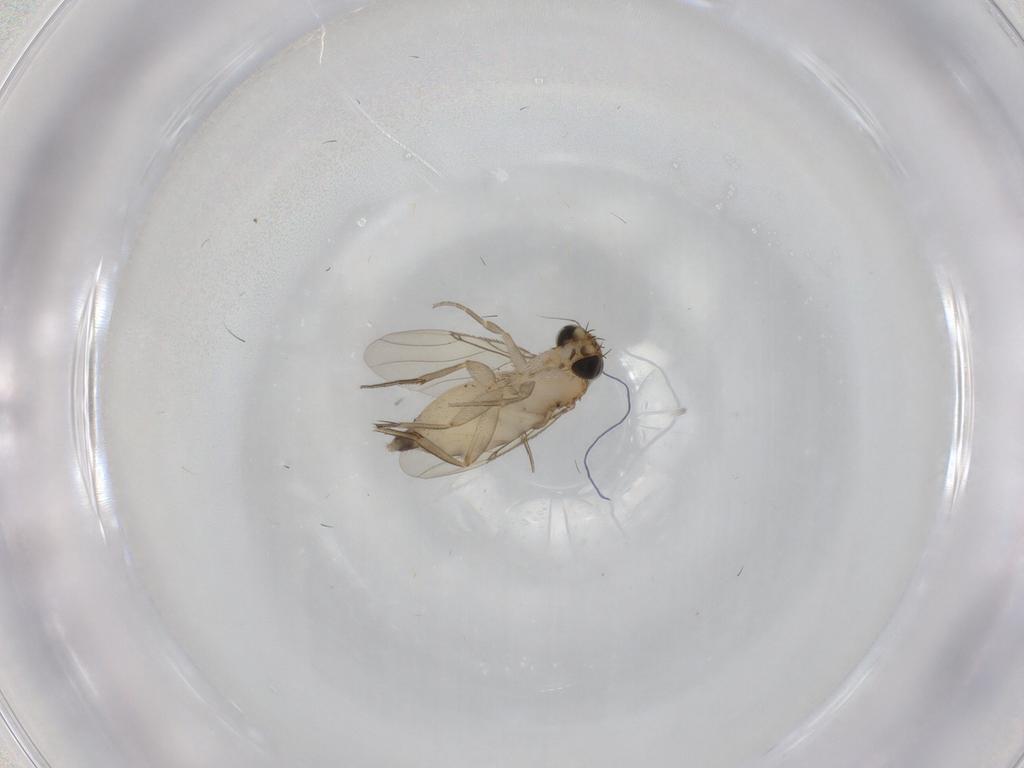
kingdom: Animalia
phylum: Arthropoda
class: Insecta
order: Diptera
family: Phoridae
